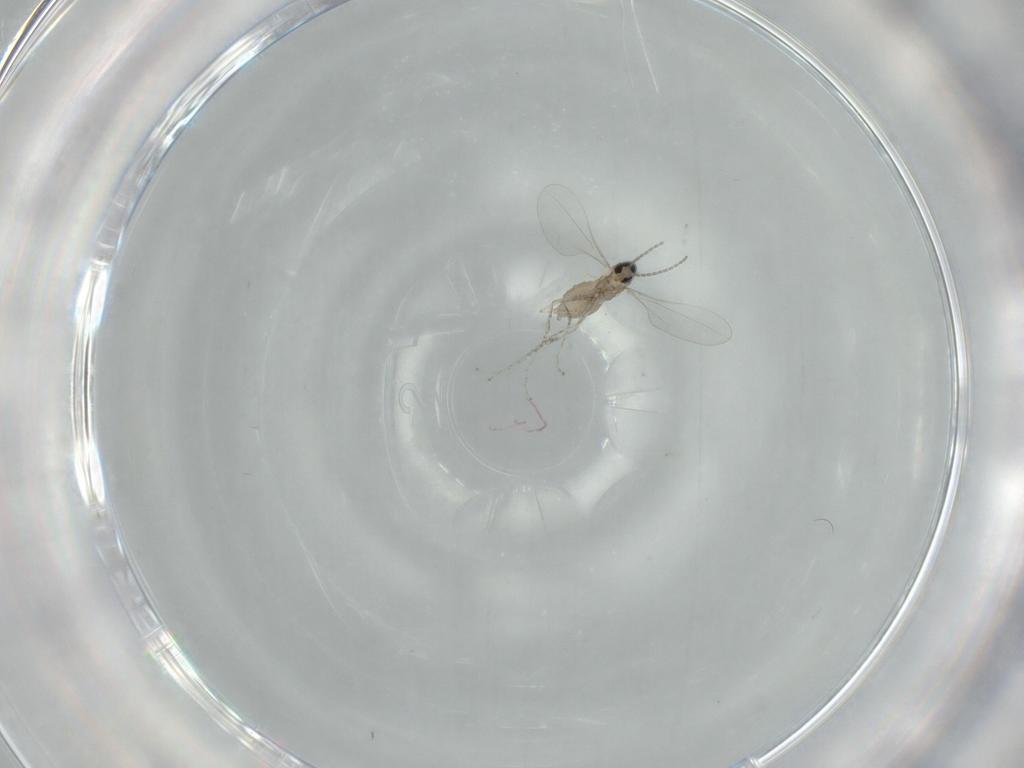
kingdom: Animalia
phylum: Arthropoda
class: Insecta
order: Diptera
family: Cecidomyiidae
